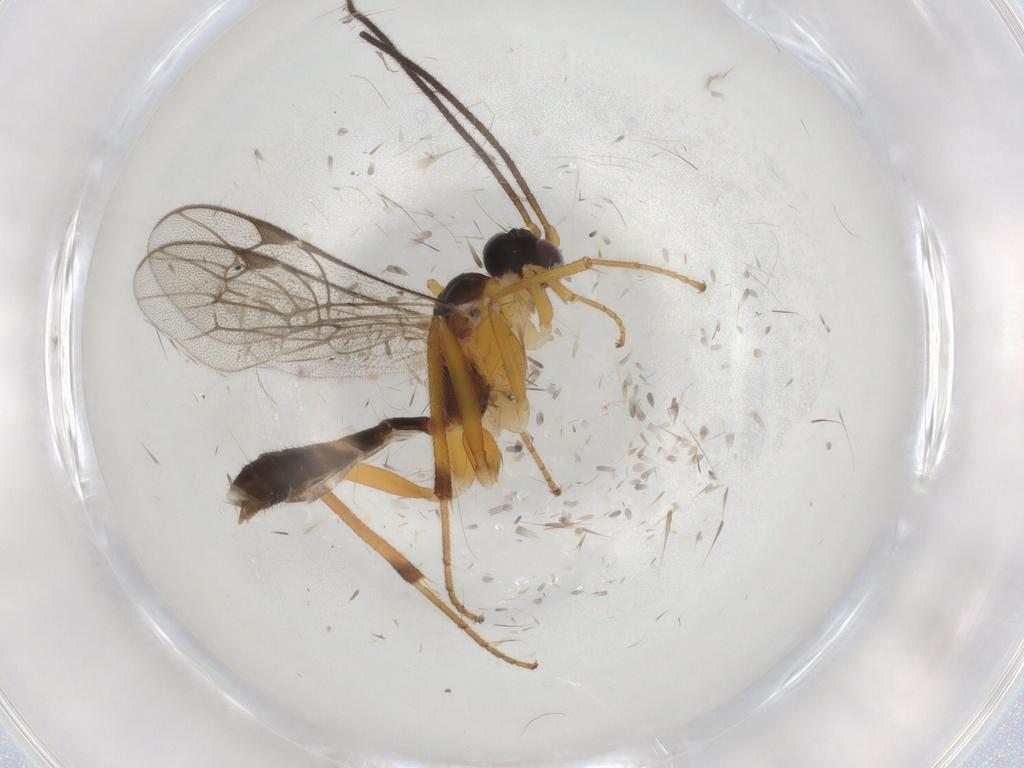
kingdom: Animalia
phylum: Arthropoda
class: Insecta
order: Hymenoptera
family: Ichneumonidae
